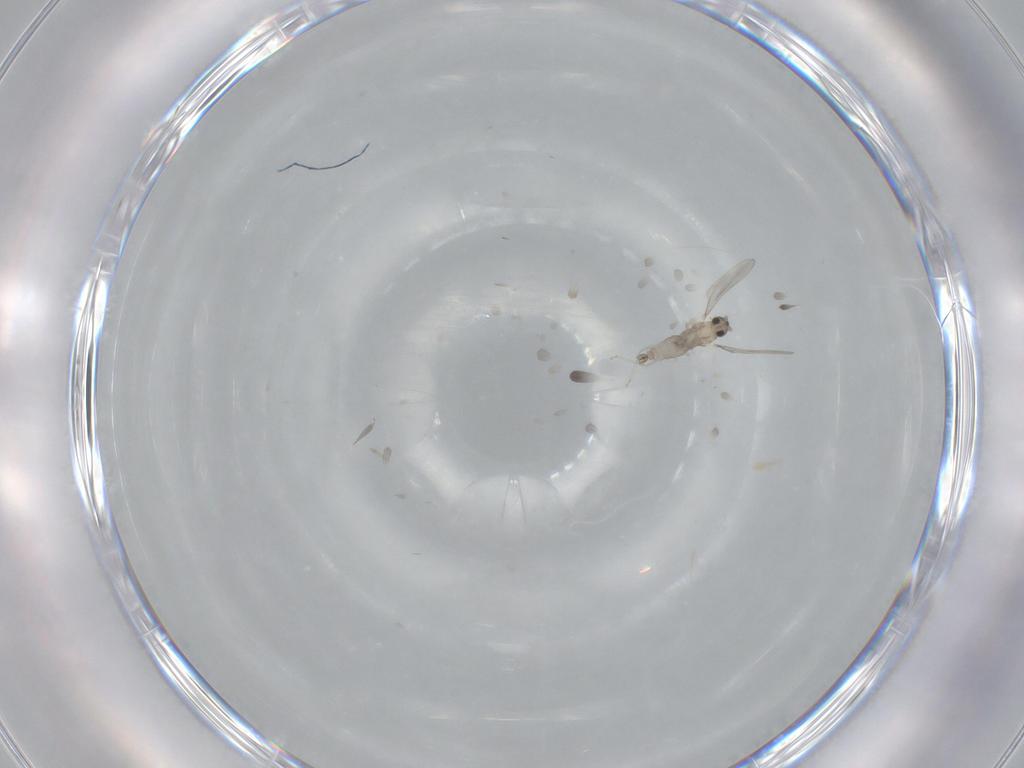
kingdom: Animalia
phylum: Arthropoda
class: Insecta
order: Diptera
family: Cecidomyiidae
